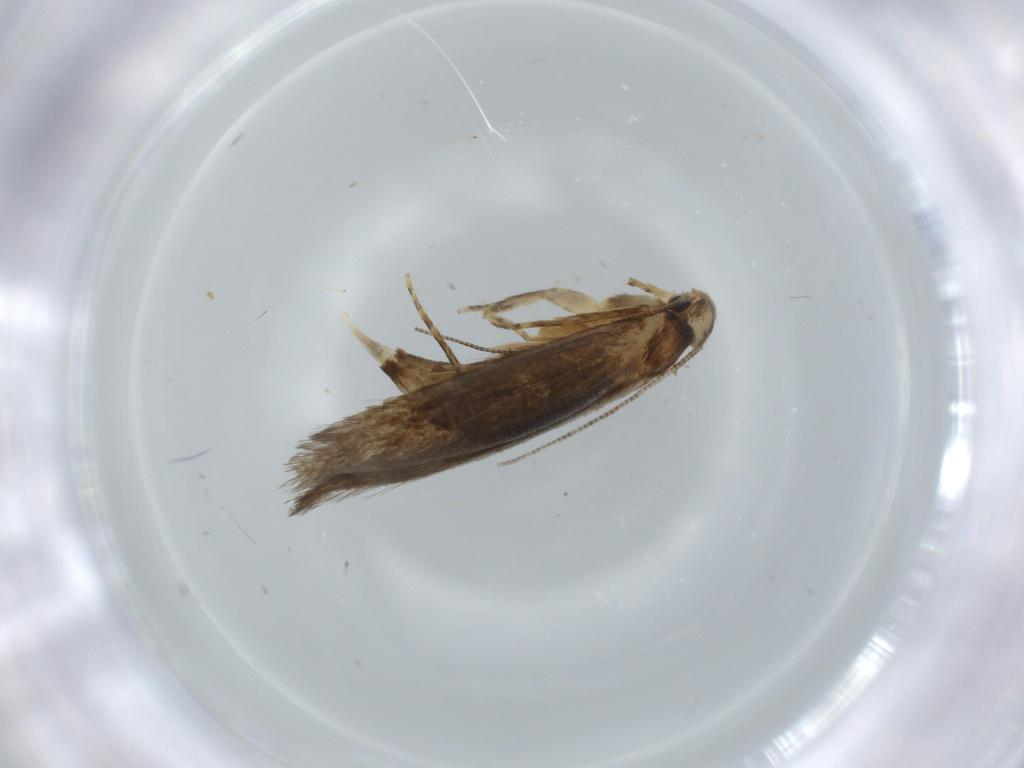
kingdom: Animalia
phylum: Arthropoda
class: Insecta
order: Lepidoptera
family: Tineidae
